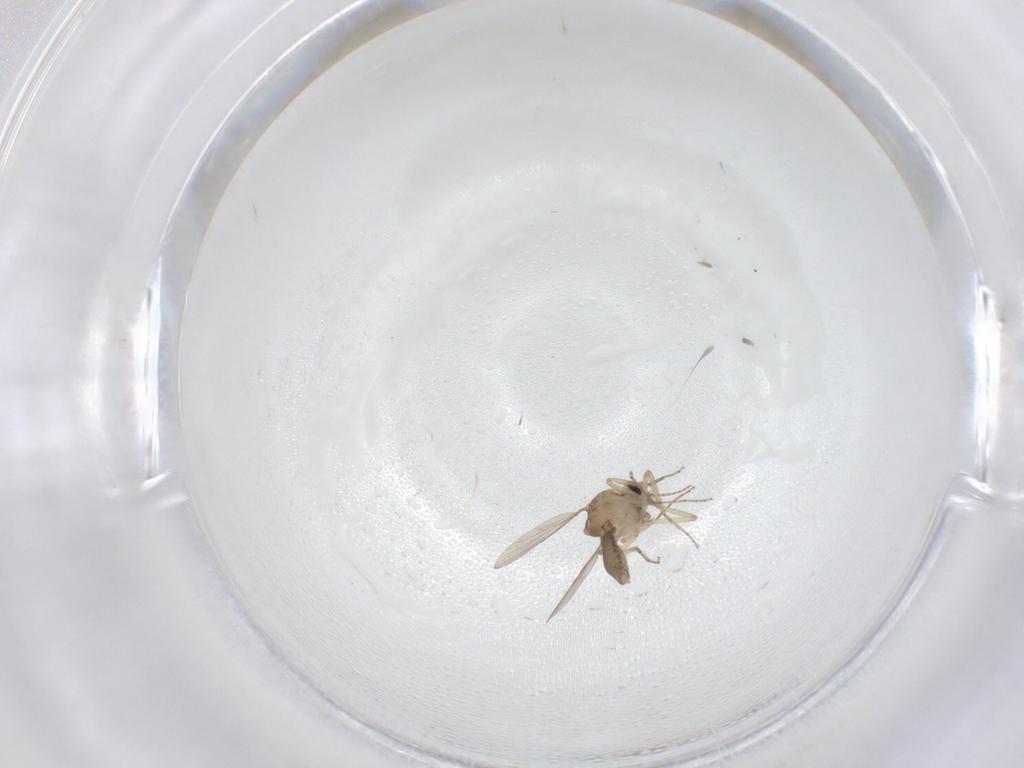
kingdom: Animalia
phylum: Arthropoda
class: Insecta
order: Diptera
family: Ceratopogonidae
